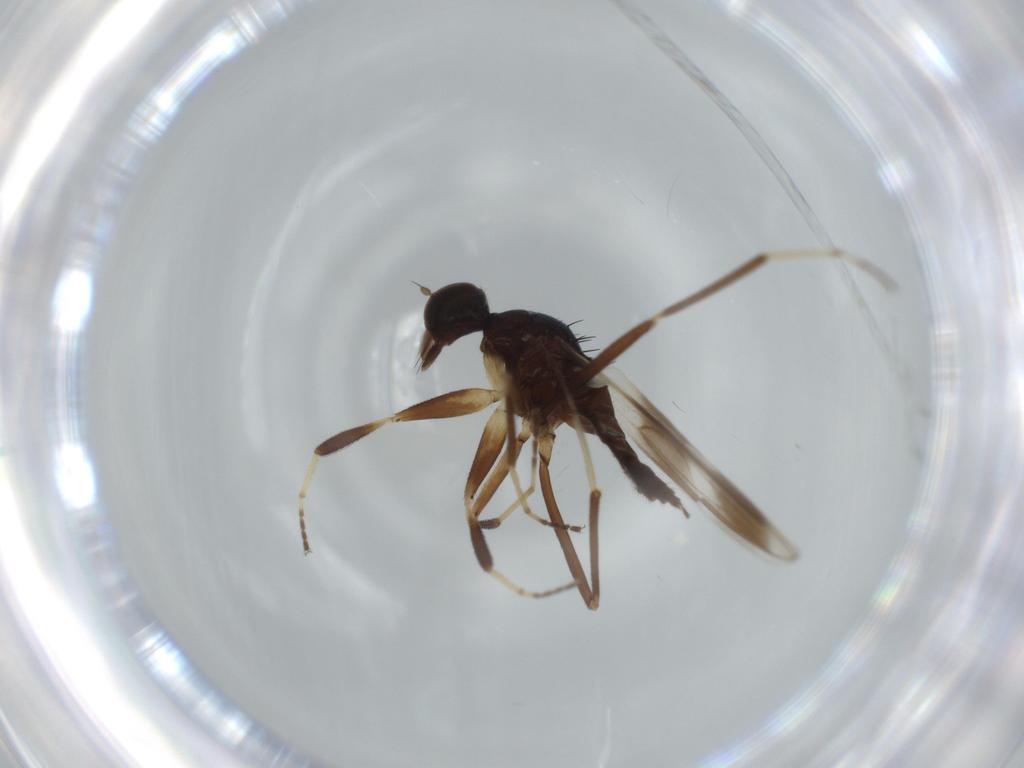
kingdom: Animalia
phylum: Arthropoda
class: Insecta
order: Diptera
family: Hybotidae
